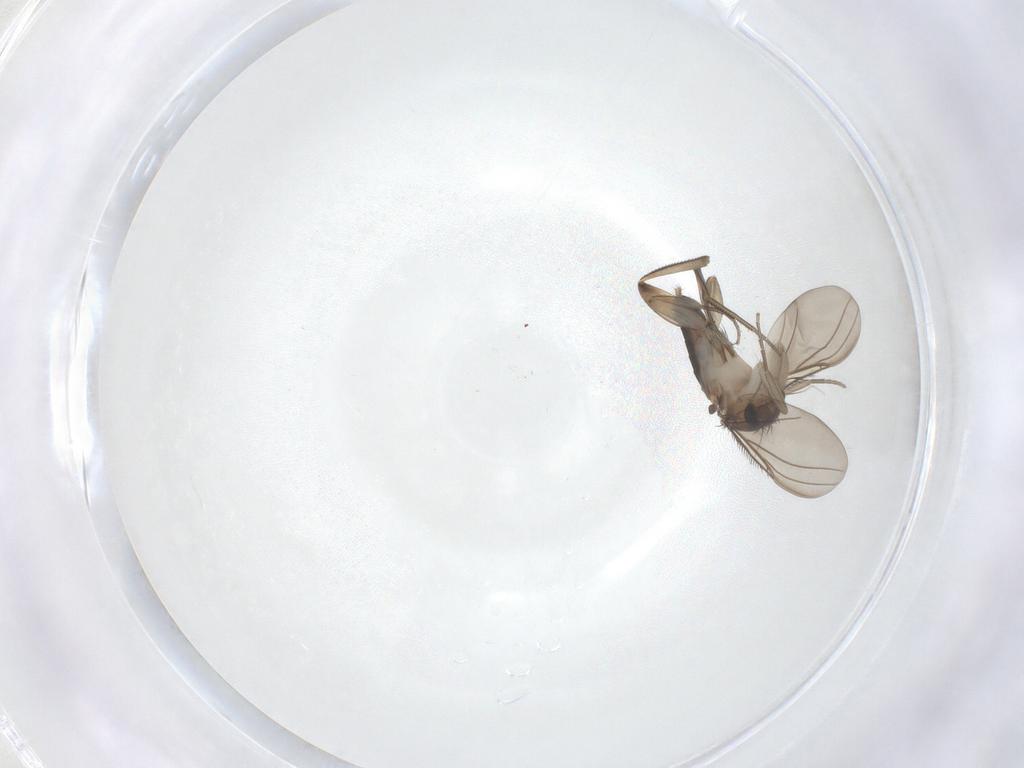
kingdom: Animalia
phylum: Arthropoda
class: Insecta
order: Diptera
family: Phoridae
